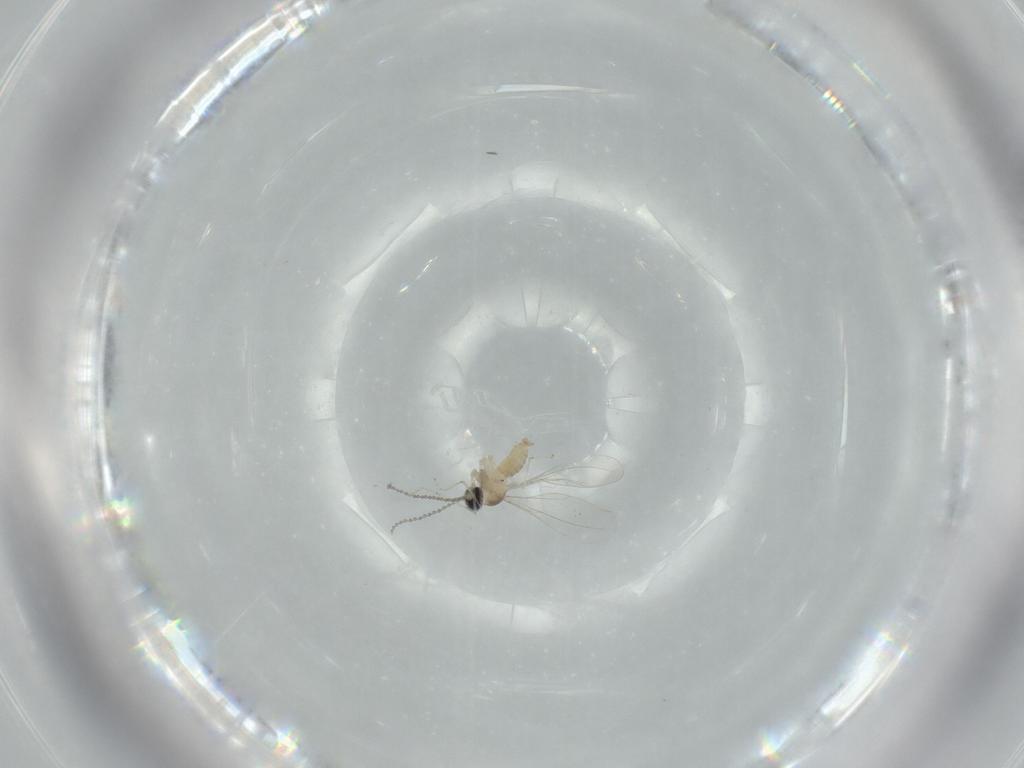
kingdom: Animalia
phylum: Arthropoda
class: Insecta
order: Diptera
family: Cecidomyiidae
